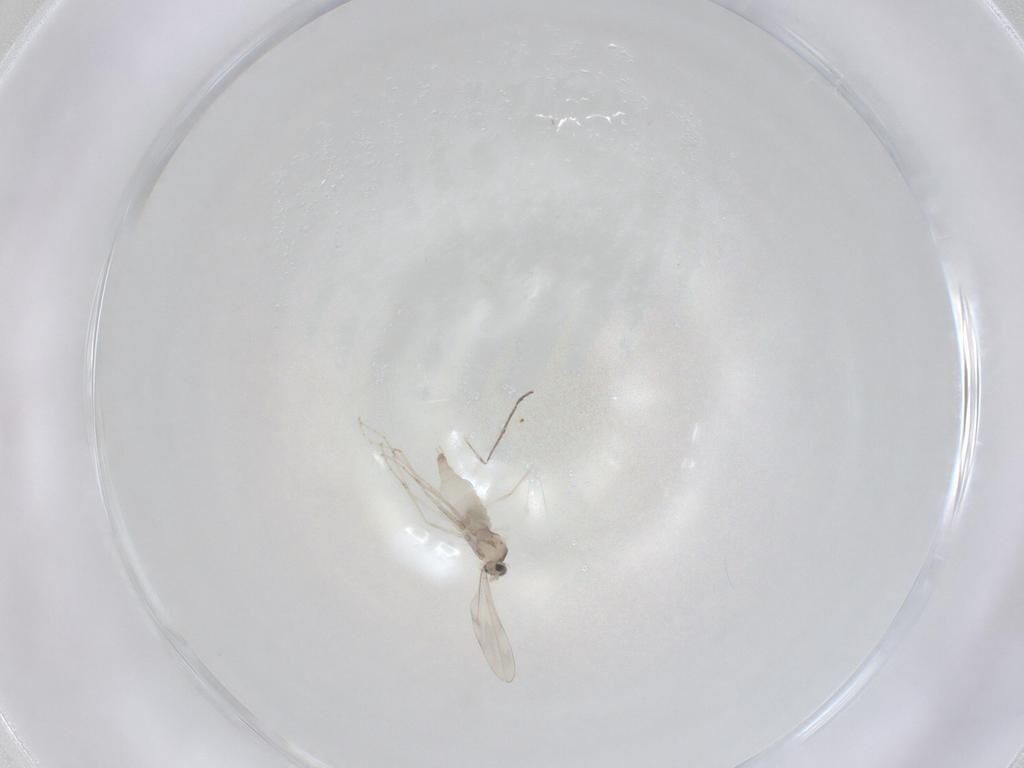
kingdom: Animalia
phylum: Arthropoda
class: Insecta
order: Diptera
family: Cecidomyiidae
